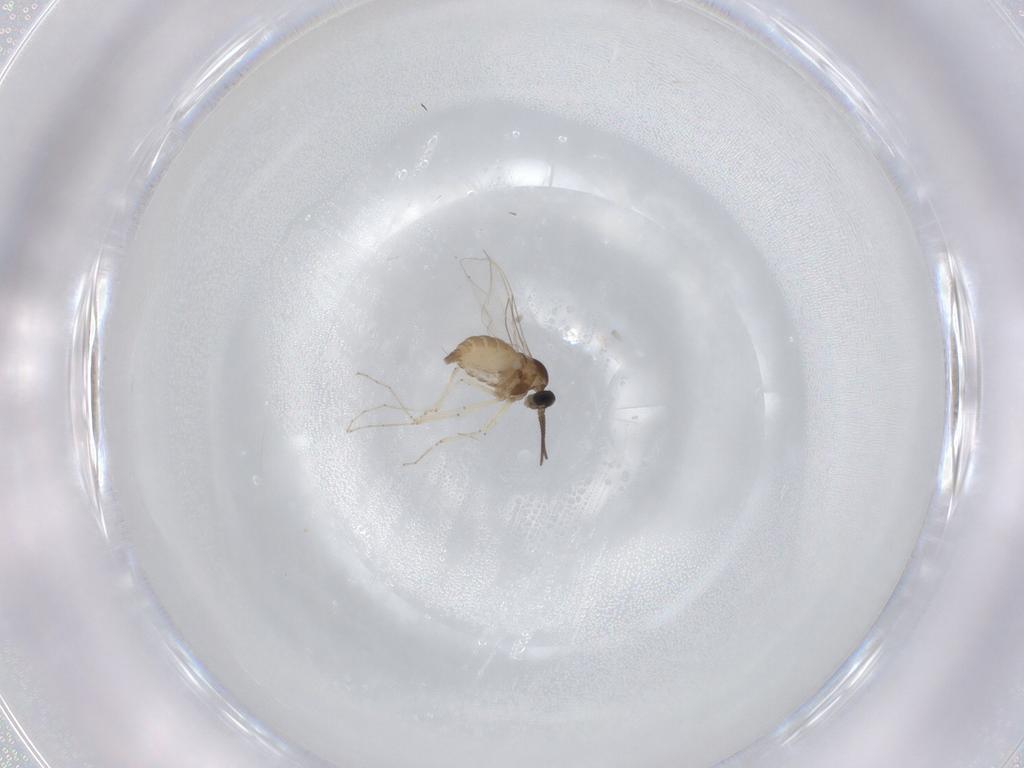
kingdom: Animalia
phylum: Arthropoda
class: Insecta
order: Diptera
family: Cecidomyiidae
